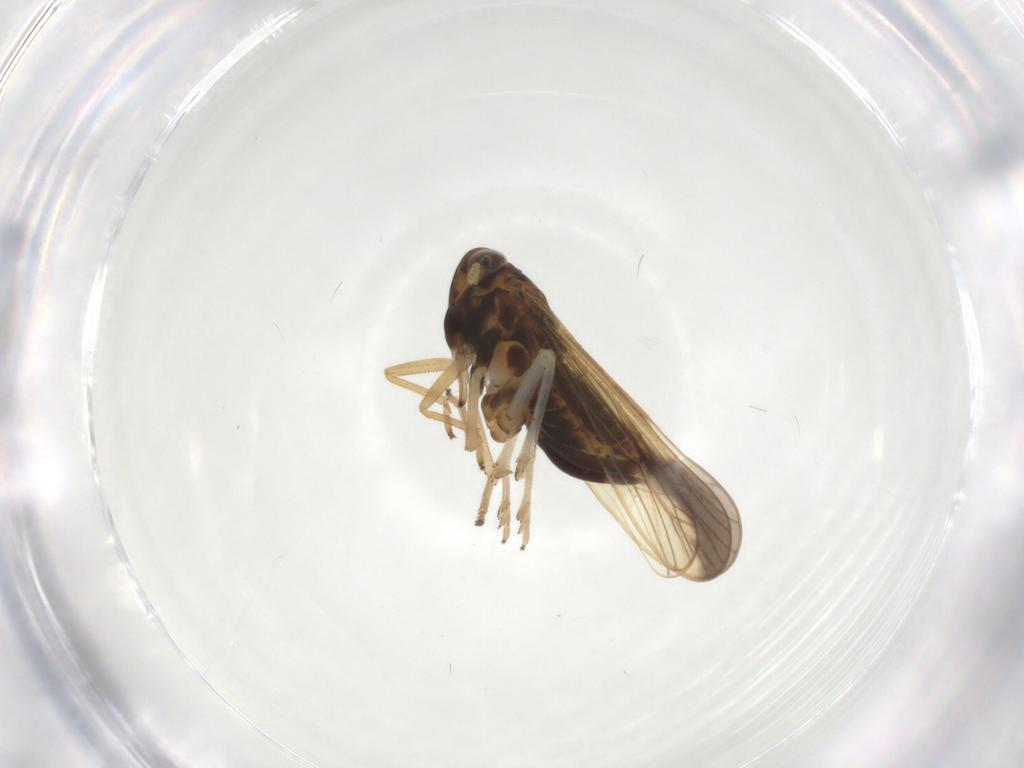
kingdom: Animalia
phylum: Arthropoda
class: Insecta
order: Hemiptera
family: Delphacidae
